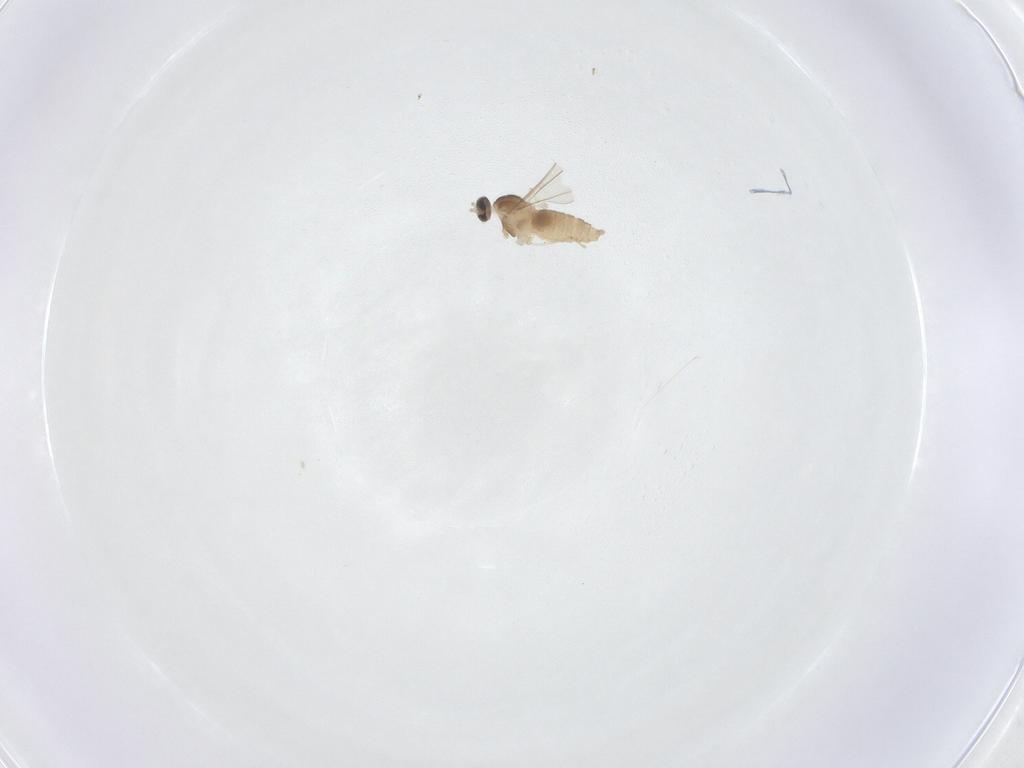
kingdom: Animalia
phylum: Arthropoda
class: Insecta
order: Diptera
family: Cecidomyiidae
